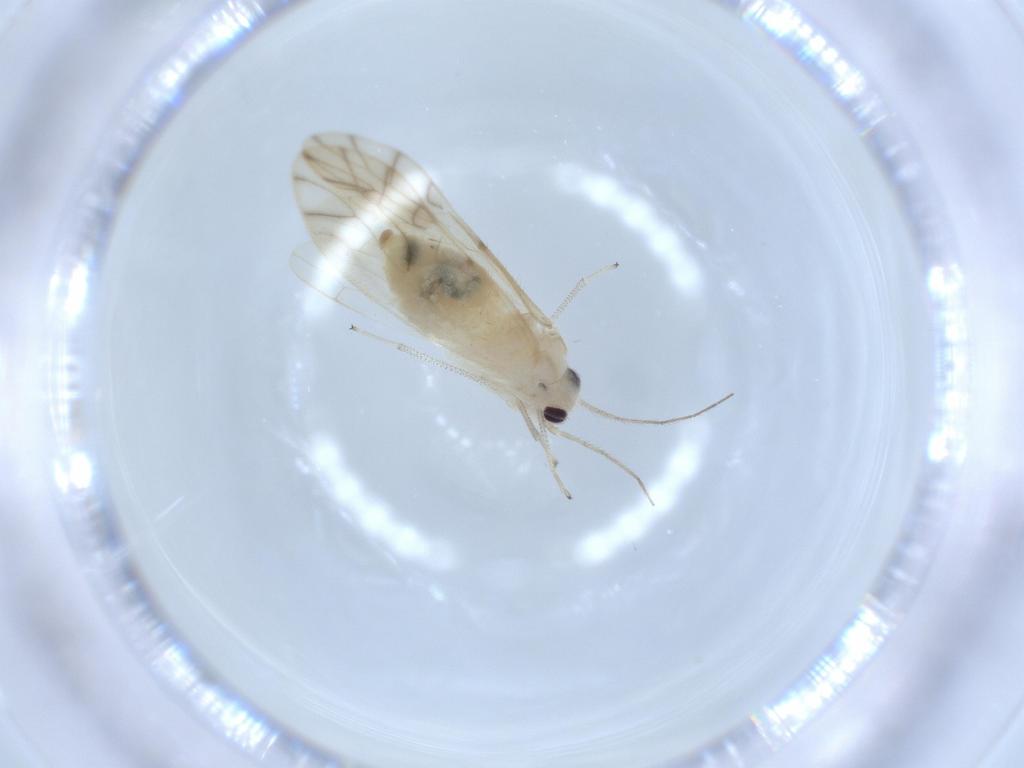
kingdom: Animalia
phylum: Arthropoda
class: Insecta
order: Psocodea
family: Caeciliusidae
